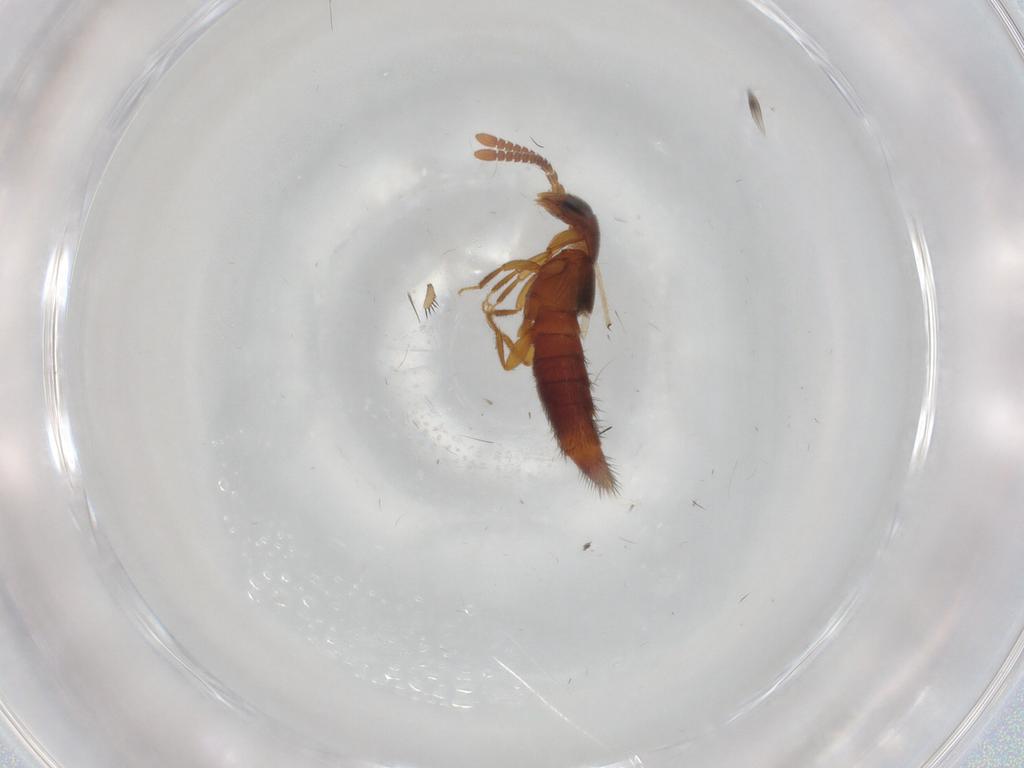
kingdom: Animalia
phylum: Arthropoda
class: Insecta
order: Coleoptera
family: Staphylinidae
